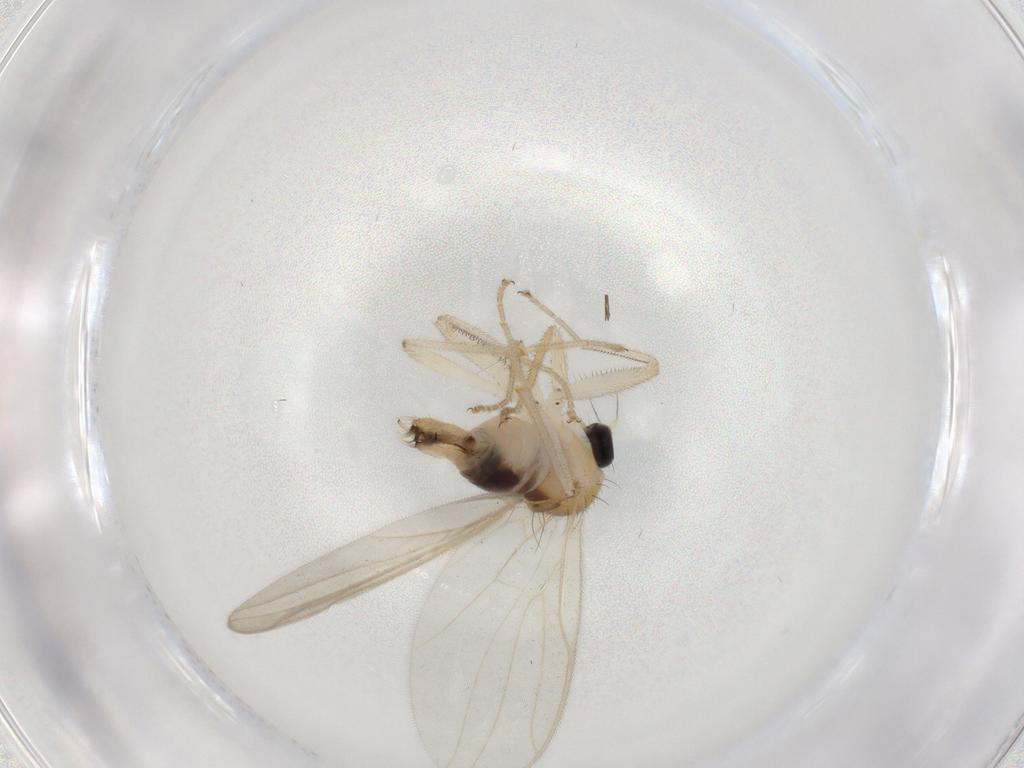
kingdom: Animalia
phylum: Arthropoda
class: Insecta
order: Diptera
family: Hybotidae
